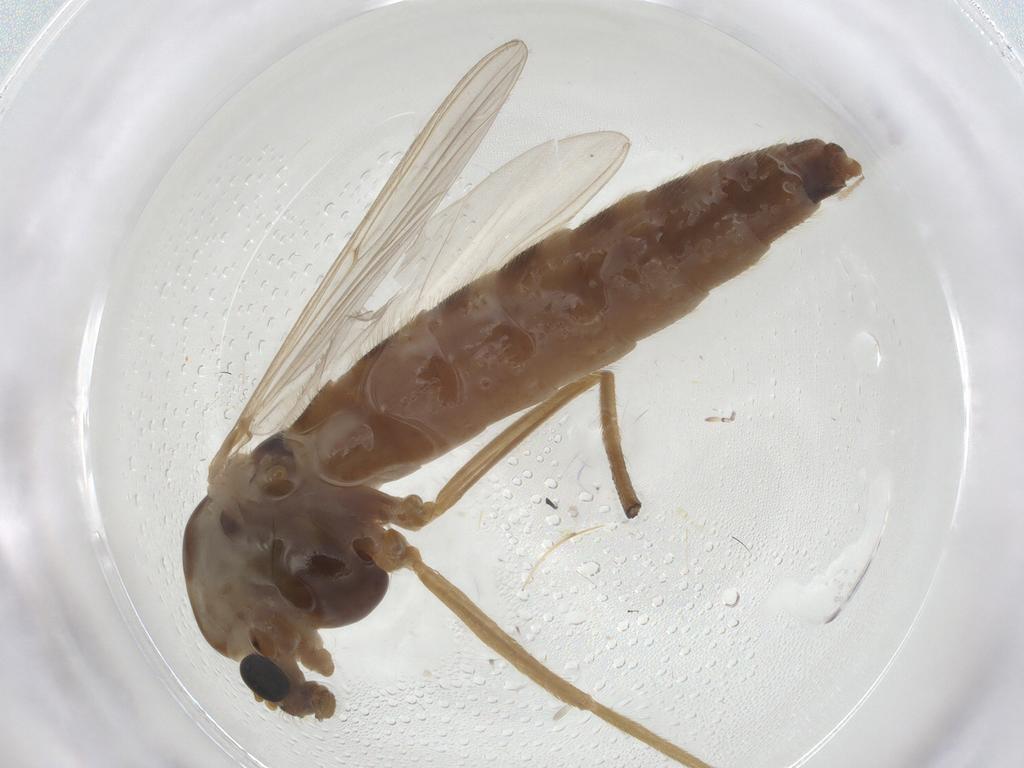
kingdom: Animalia
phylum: Arthropoda
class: Insecta
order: Diptera
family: Chironomidae
